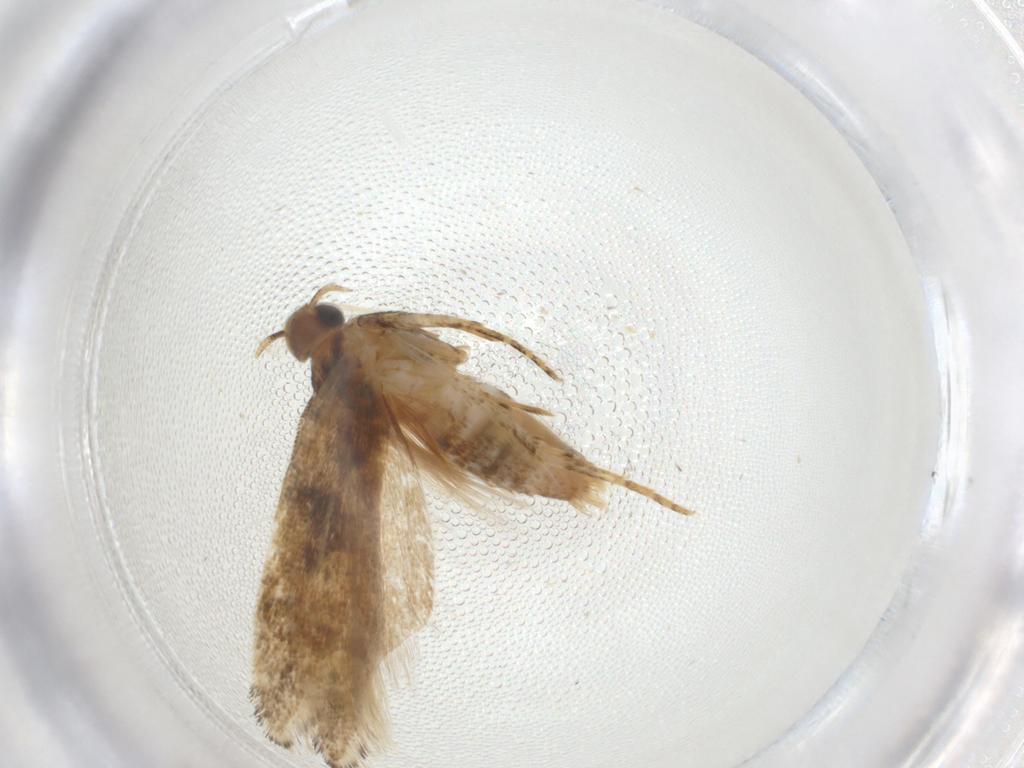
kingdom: Animalia
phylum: Arthropoda
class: Insecta
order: Lepidoptera
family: Gelechiidae
